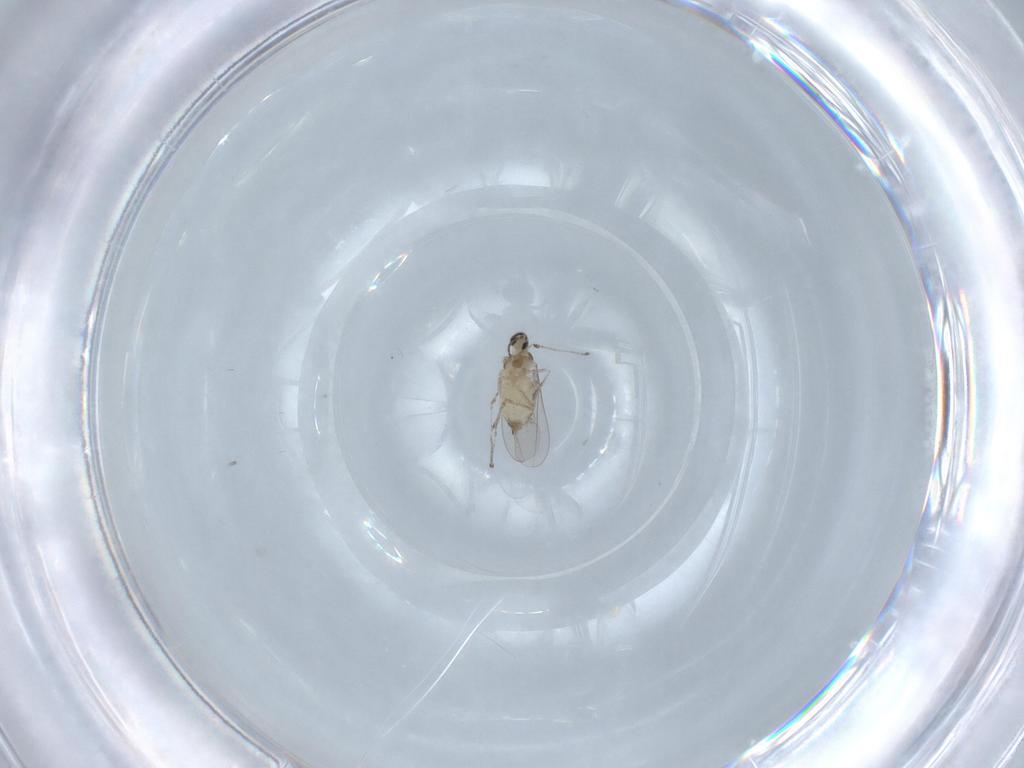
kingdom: Animalia
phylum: Arthropoda
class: Insecta
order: Diptera
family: Cecidomyiidae
